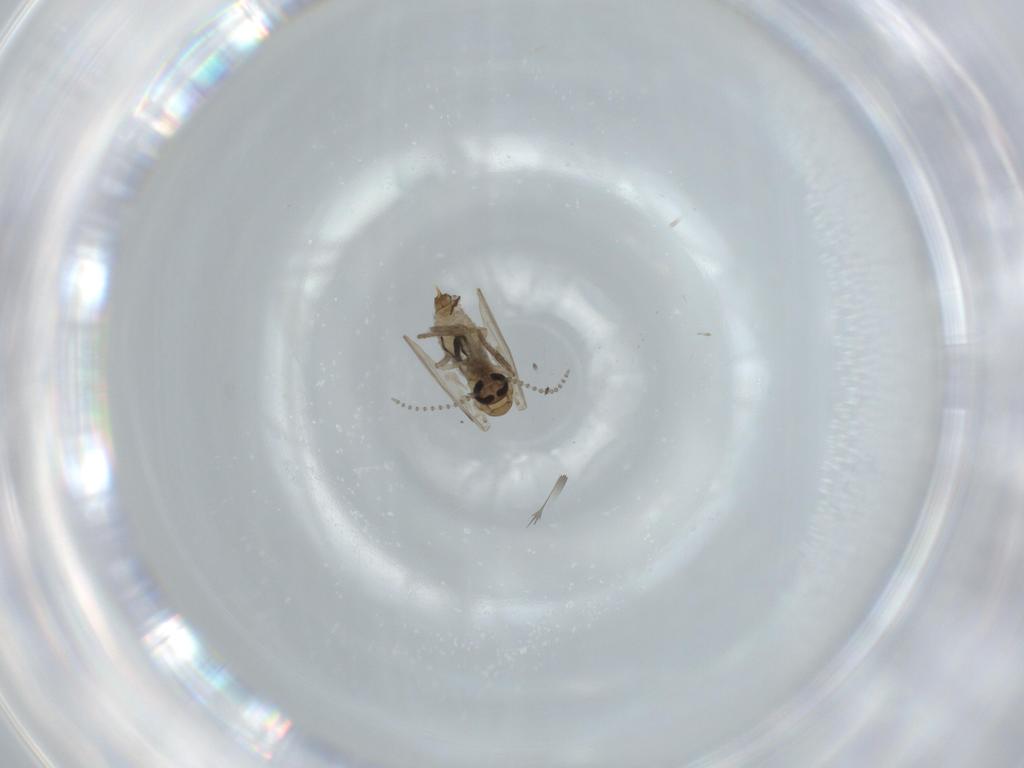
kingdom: Animalia
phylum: Arthropoda
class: Insecta
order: Diptera
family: Psychodidae
